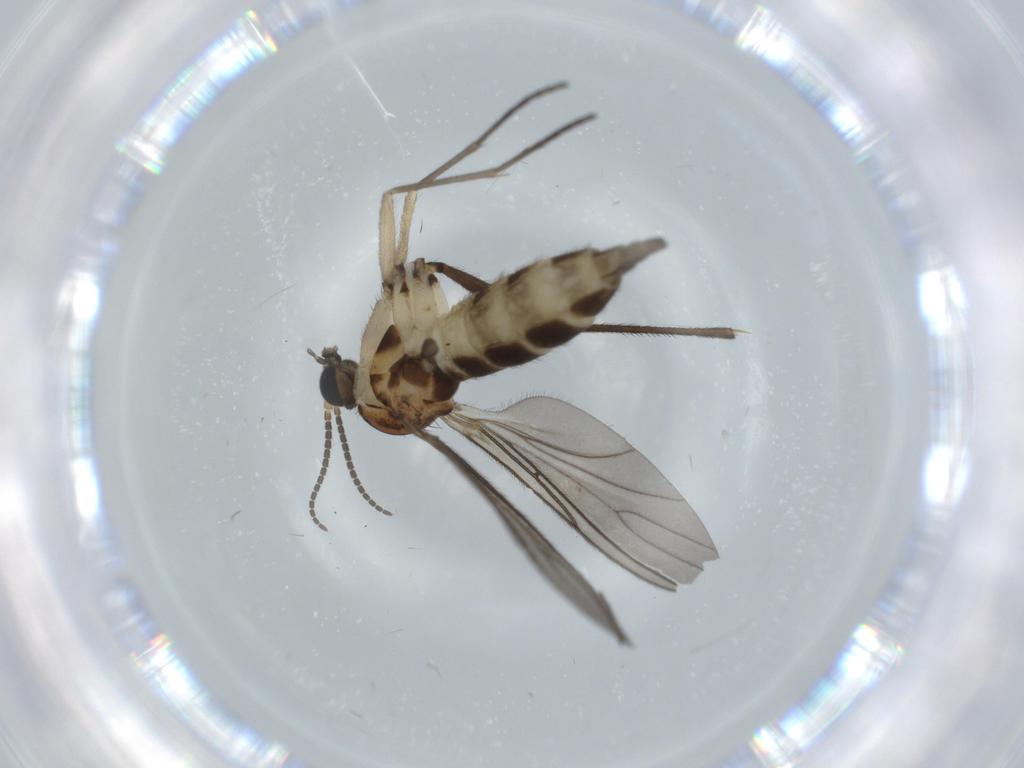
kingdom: Animalia
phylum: Arthropoda
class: Insecta
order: Diptera
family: Sciaridae
